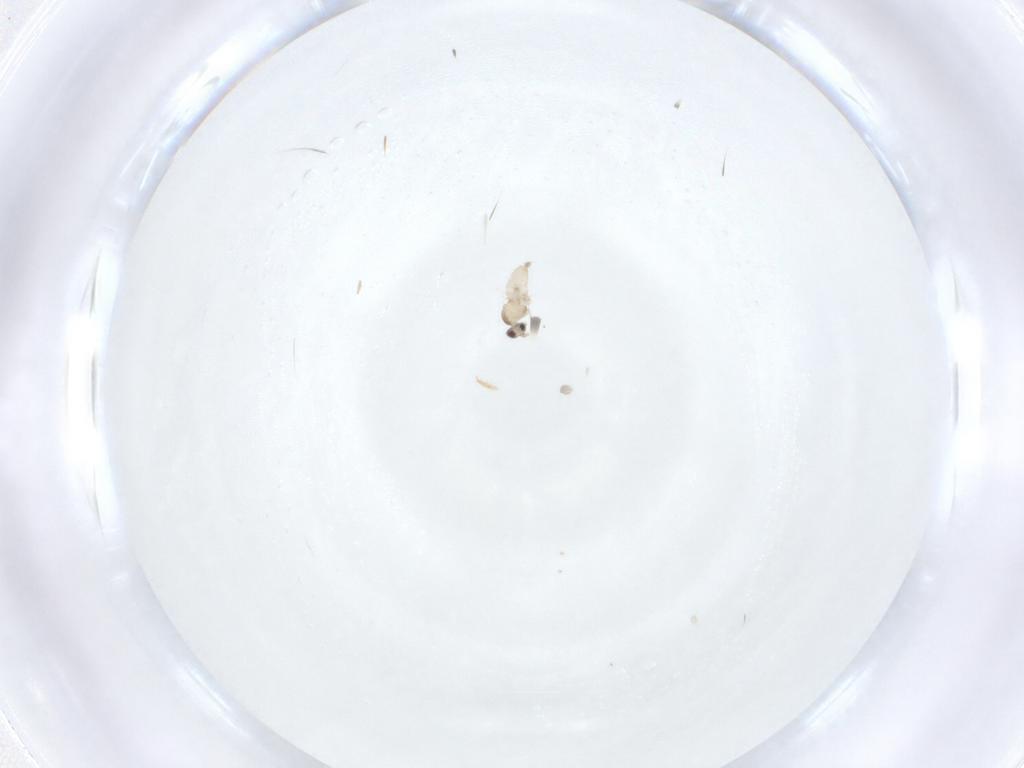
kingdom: Animalia
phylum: Arthropoda
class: Insecta
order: Diptera
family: Cecidomyiidae
